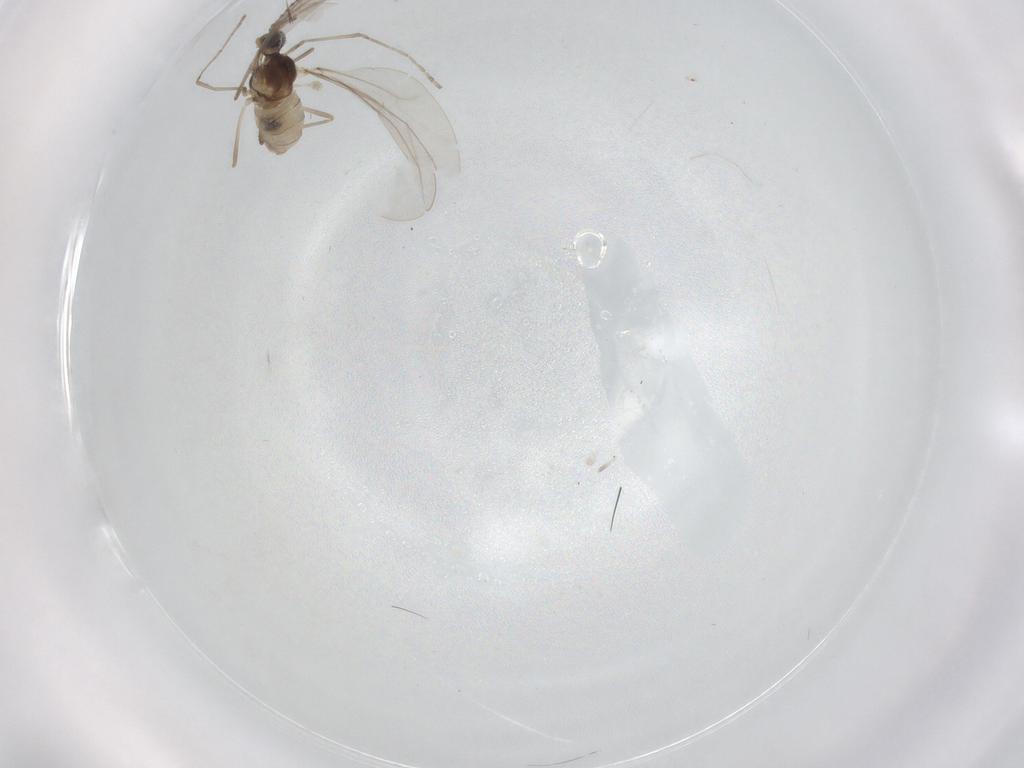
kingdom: Animalia
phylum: Arthropoda
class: Insecta
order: Diptera
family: Cecidomyiidae
